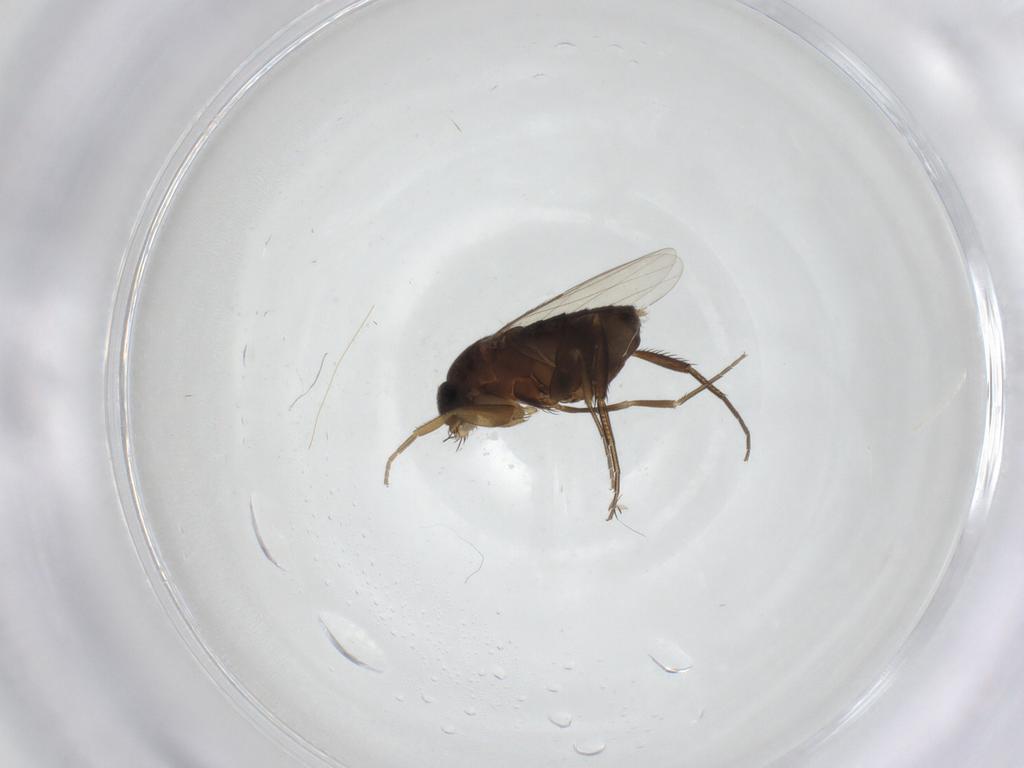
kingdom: Animalia
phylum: Arthropoda
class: Insecta
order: Diptera
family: Phoridae
